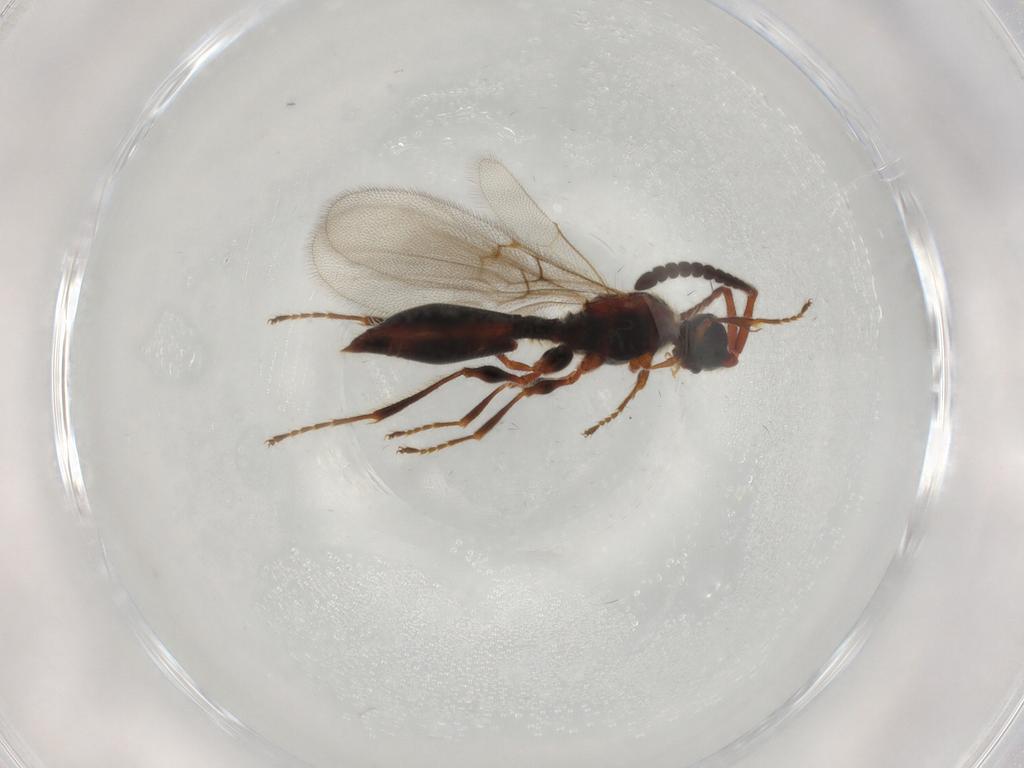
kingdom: Animalia
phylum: Arthropoda
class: Insecta
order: Hymenoptera
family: Diapriidae
